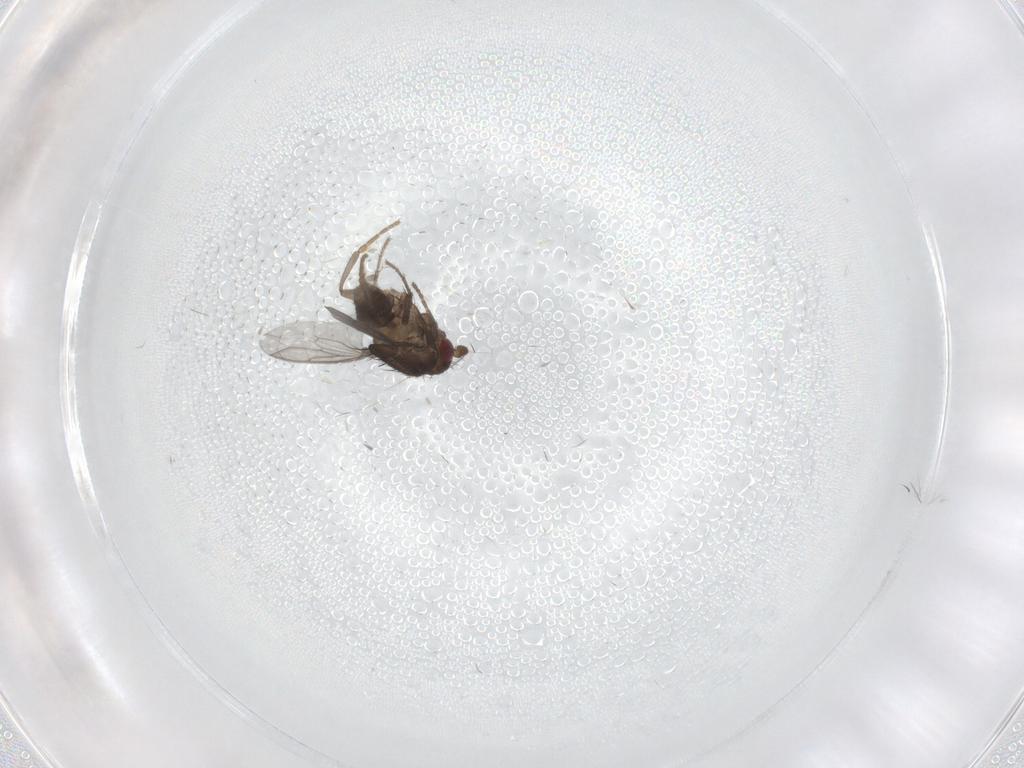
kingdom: Animalia
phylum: Arthropoda
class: Insecta
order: Diptera
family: Sphaeroceridae
